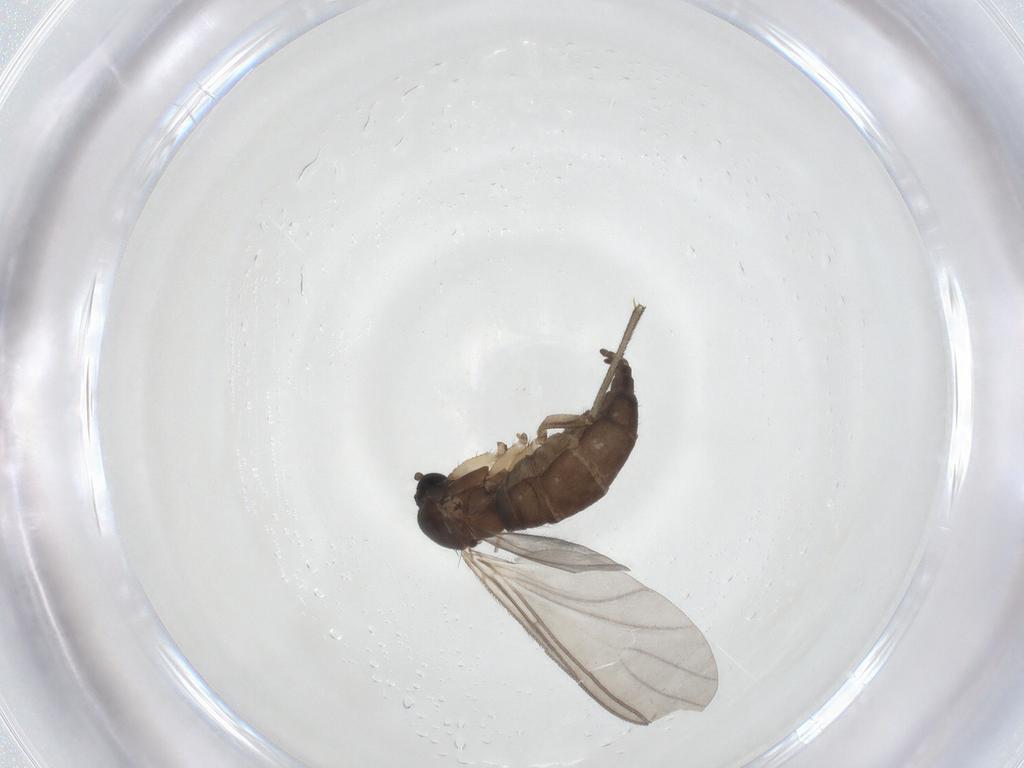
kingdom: Animalia
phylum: Arthropoda
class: Insecta
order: Diptera
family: Sciaridae
